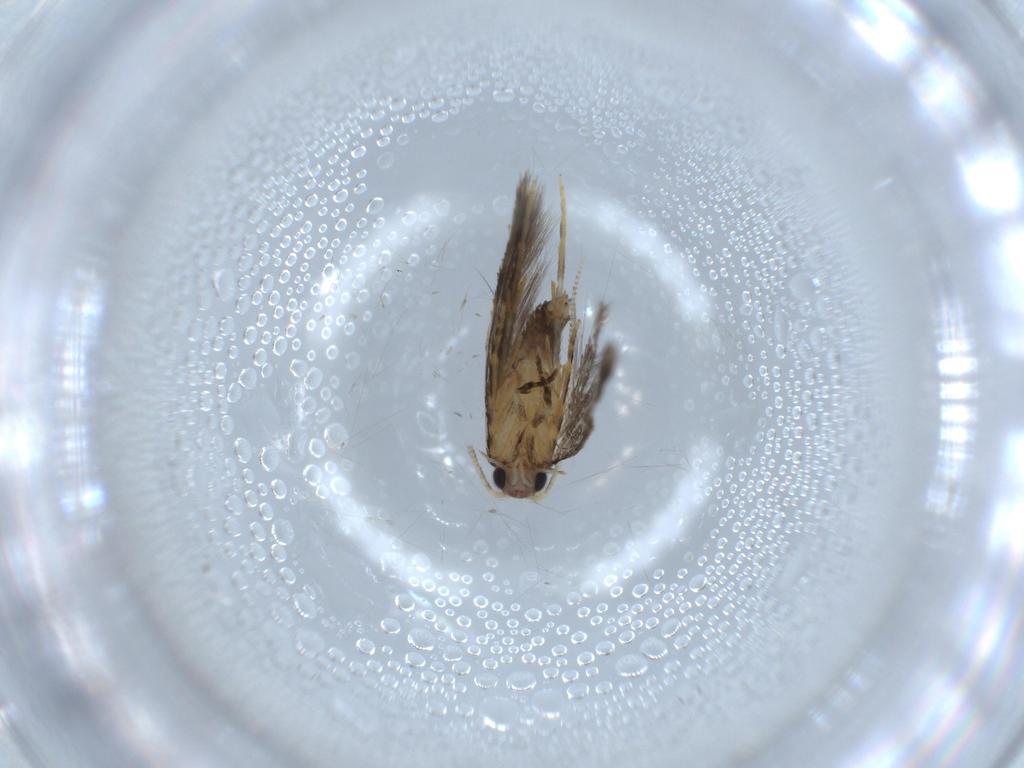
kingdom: Animalia
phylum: Arthropoda
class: Insecta
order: Lepidoptera
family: Tineidae
